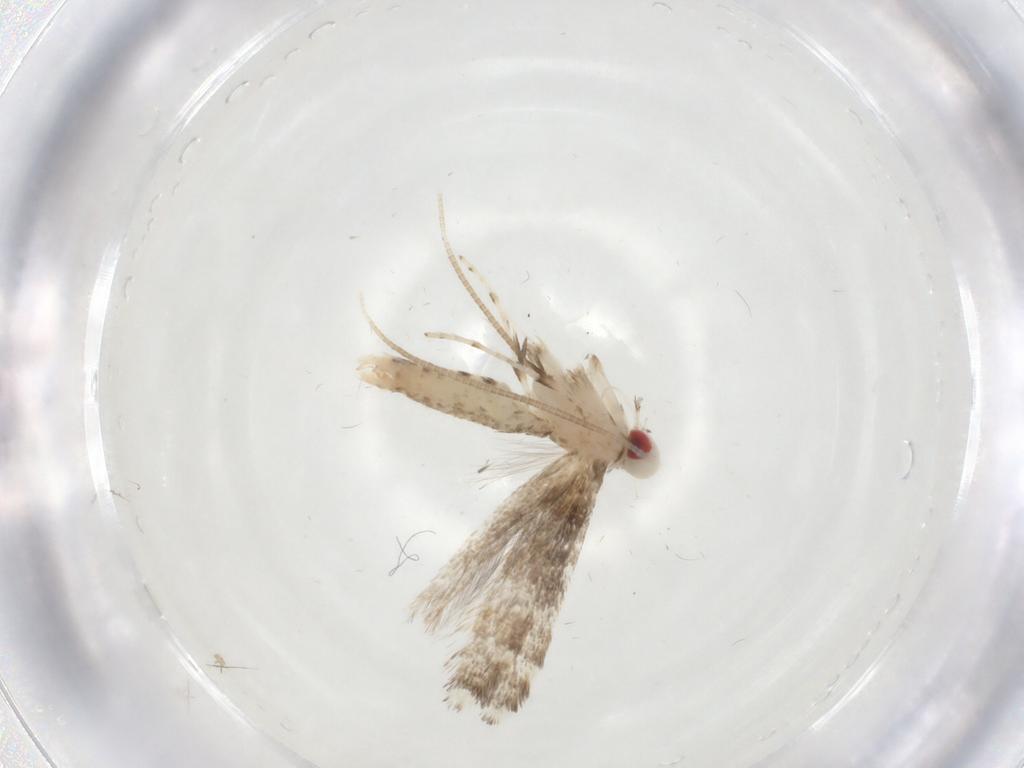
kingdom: Animalia
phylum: Arthropoda
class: Insecta
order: Lepidoptera
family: Gracillariidae
